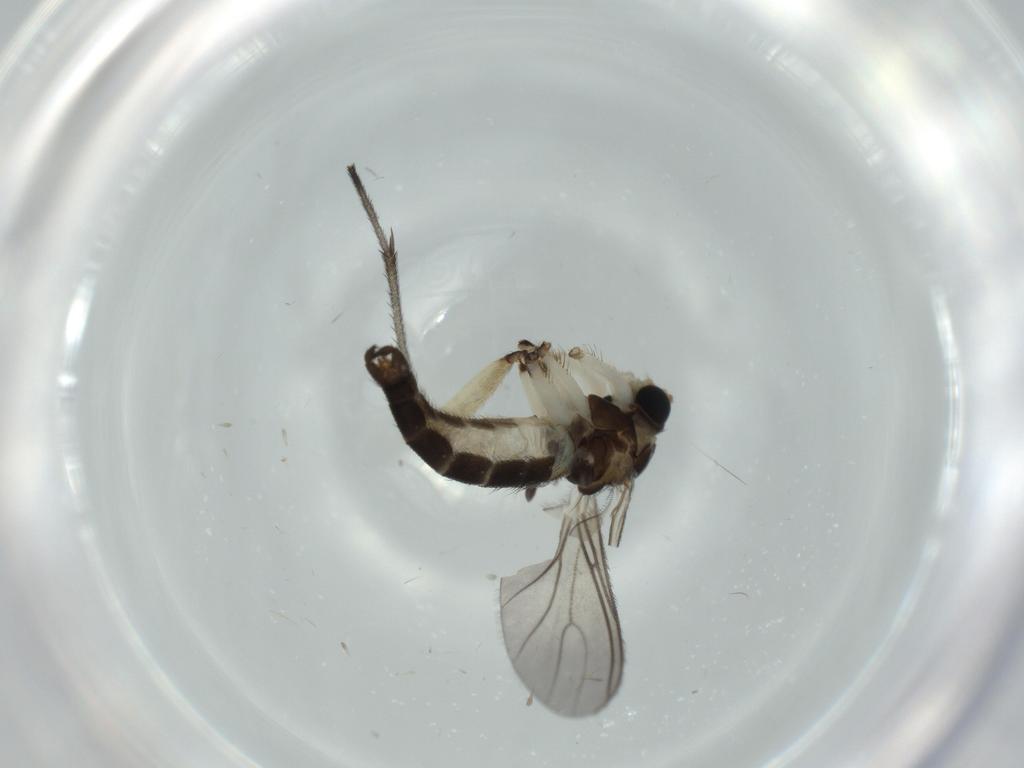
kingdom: Animalia
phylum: Arthropoda
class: Insecta
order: Diptera
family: Sciaridae
